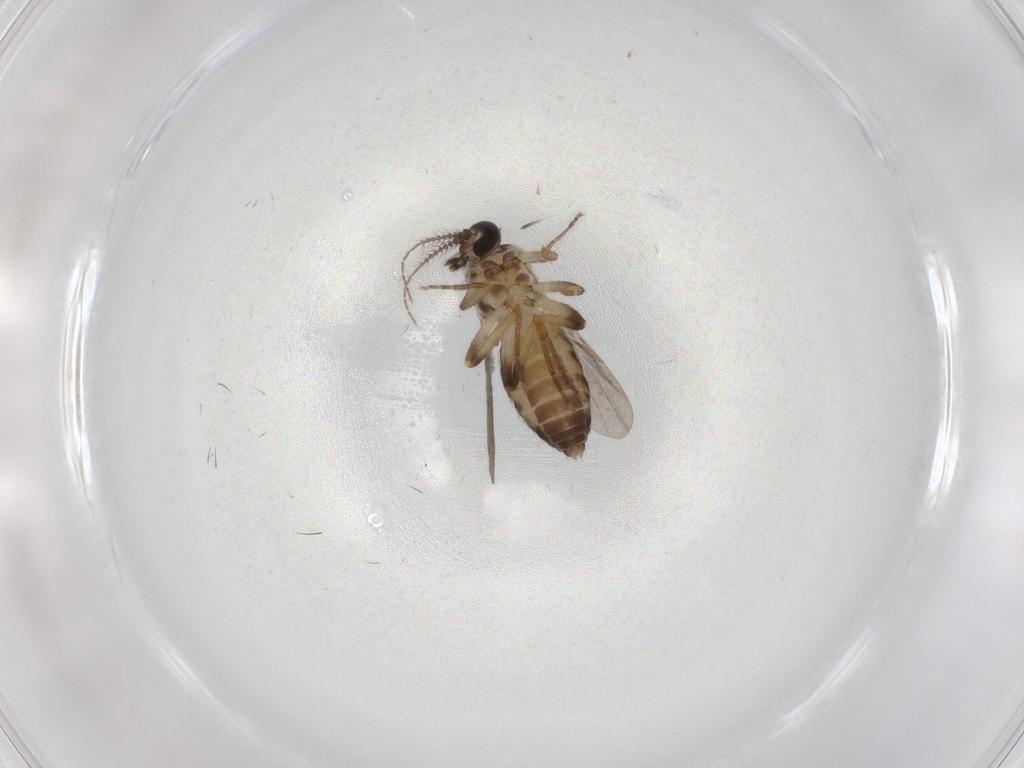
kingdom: Animalia
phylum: Arthropoda
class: Insecta
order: Diptera
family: Ceratopogonidae
